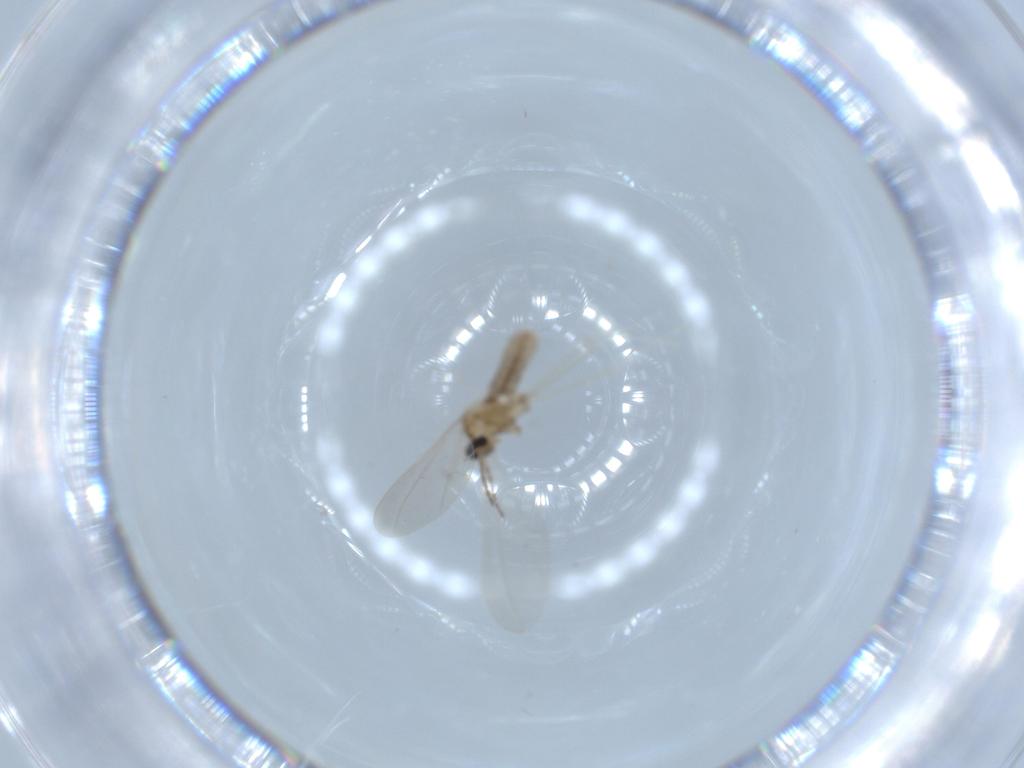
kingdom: Animalia
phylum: Arthropoda
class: Insecta
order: Diptera
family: Cecidomyiidae
